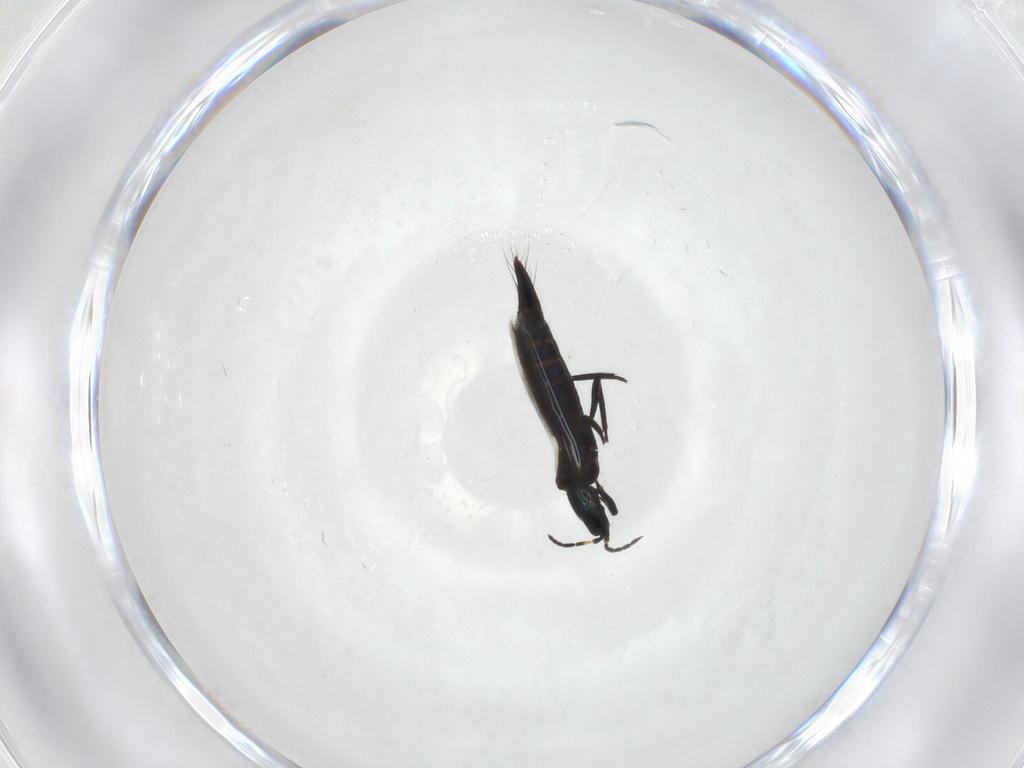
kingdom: Animalia
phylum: Arthropoda
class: Insecta
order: Thysanoptera
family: Aeolothripidae
